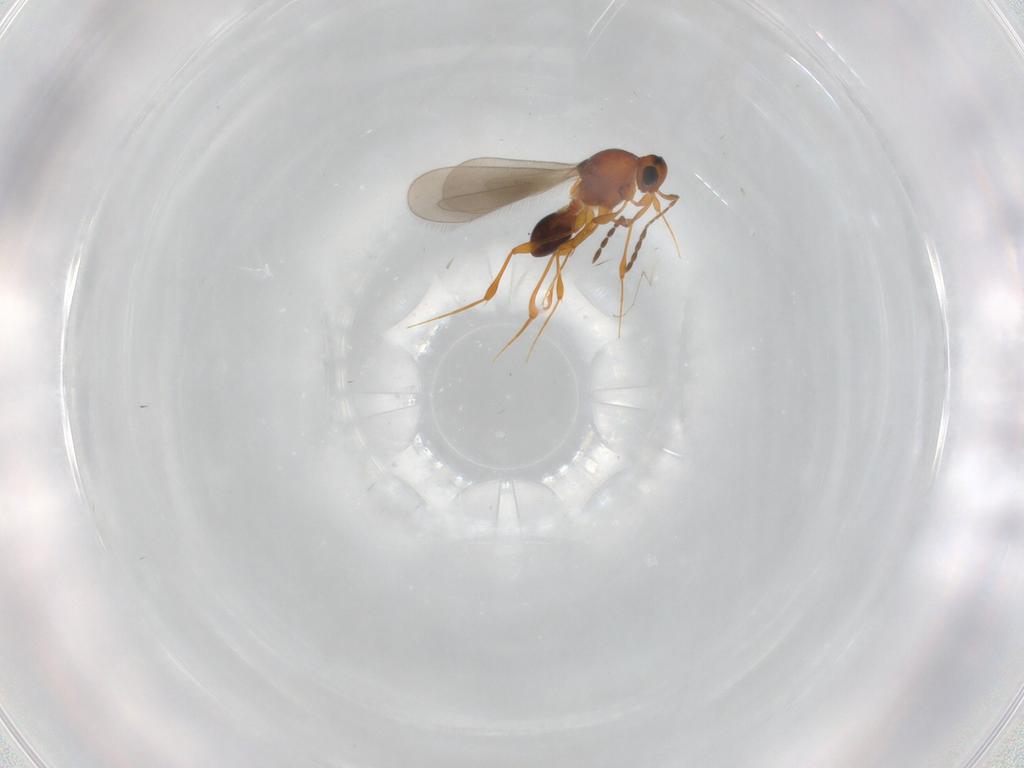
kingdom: Animalia
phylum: Arthropoda
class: Insecta
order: Hymenoptera
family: Platygastridae
